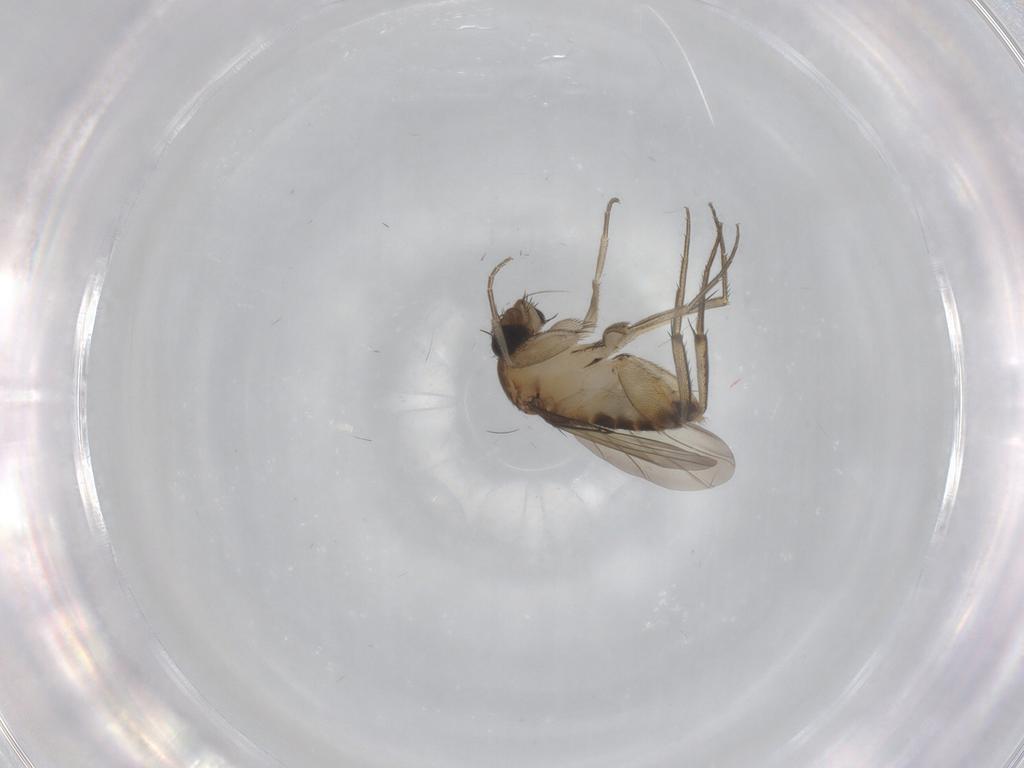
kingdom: Animalia
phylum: Arthropoda
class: Insecta
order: Diptera
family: Phoridae
